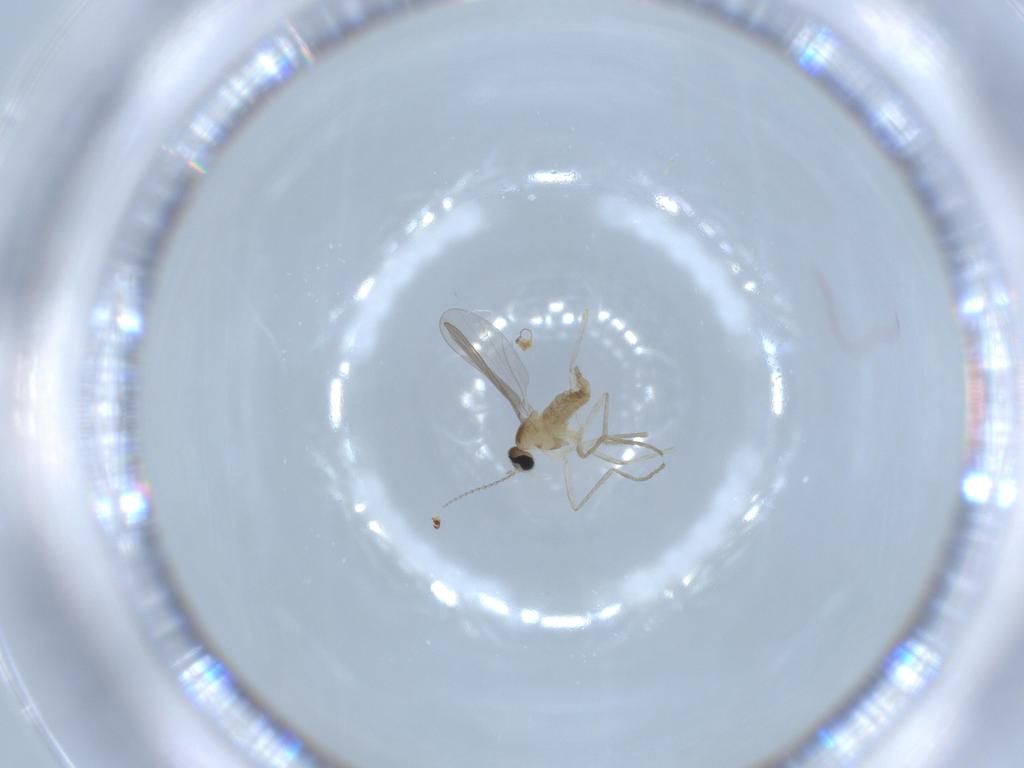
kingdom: Animalia
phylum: Arthropoda
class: Insecta
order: Diptera
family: Cecidomyiidae
